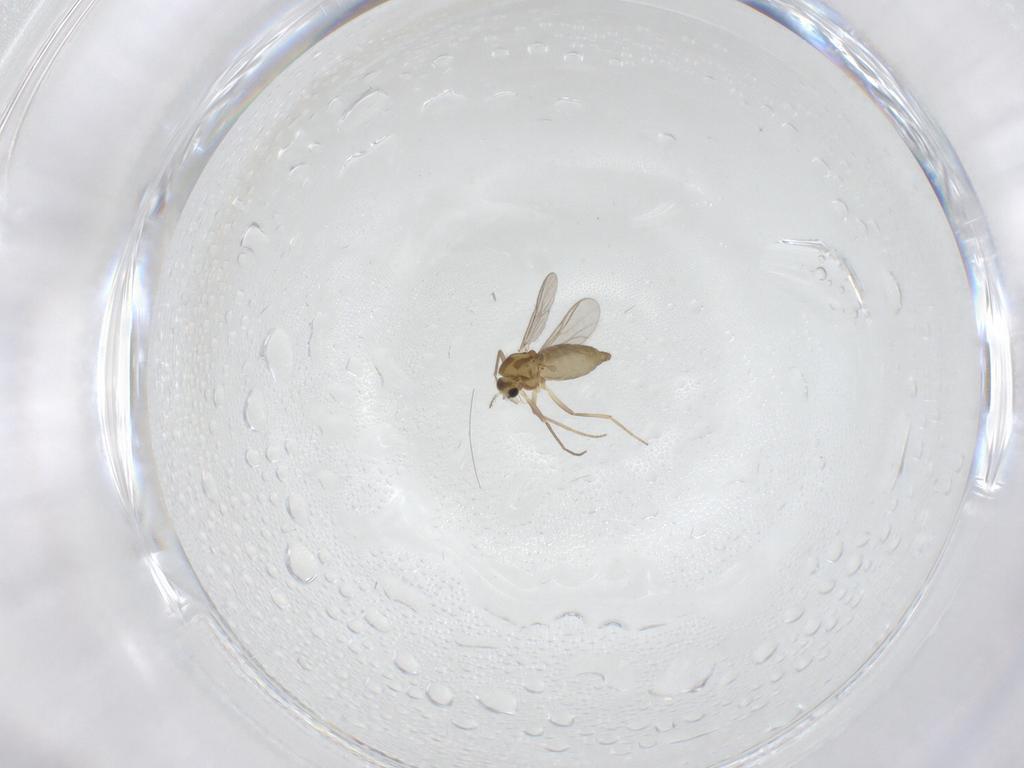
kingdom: Animalia
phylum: Arthropoda
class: Insecta
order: Diptera
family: Chironomidae
